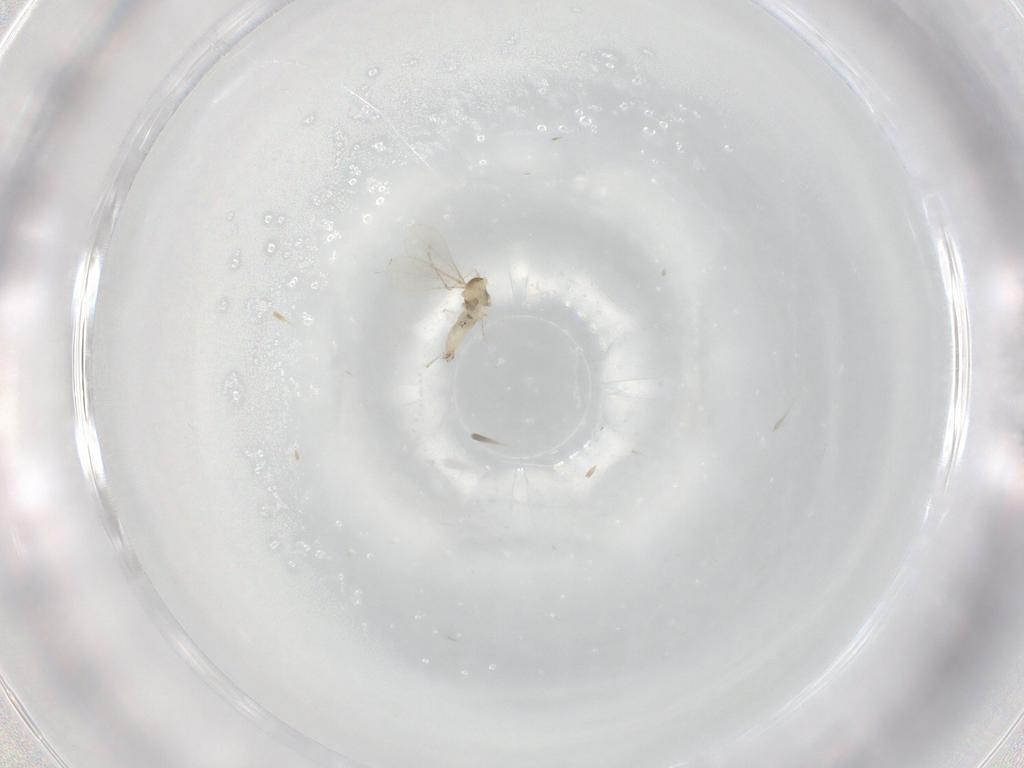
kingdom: Animalia
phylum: Arthropoda
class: Insecta
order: Diptera
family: Cecidomyiidae
